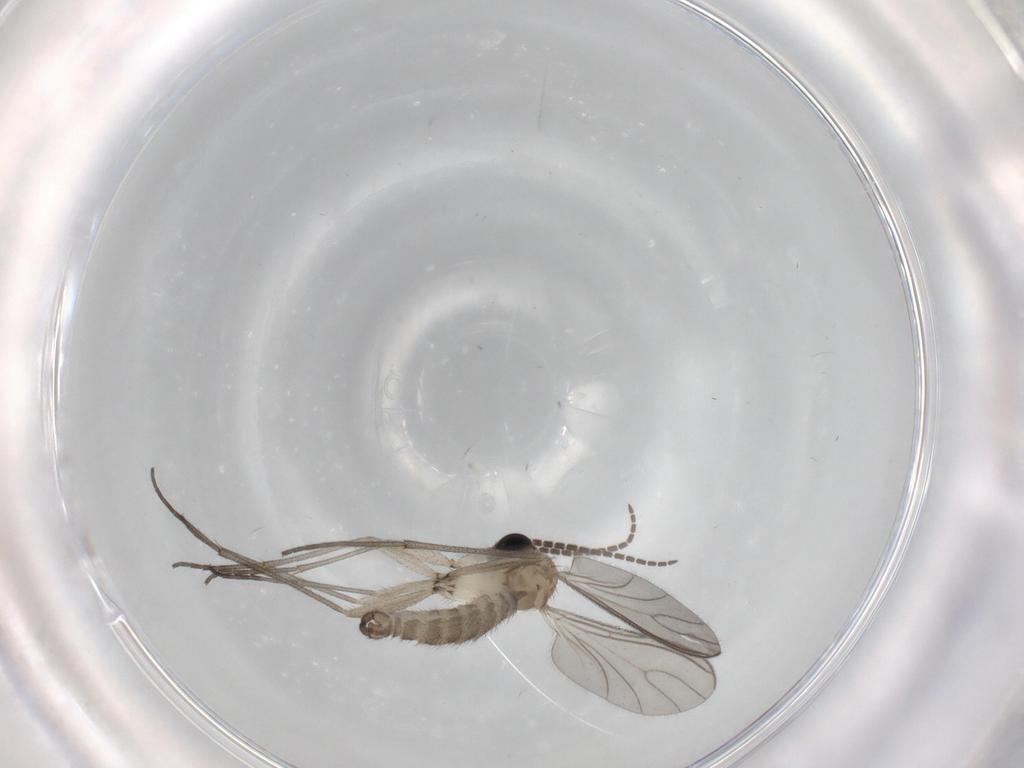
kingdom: Animalia
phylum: Arthropoda
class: Insecta
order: Diptera
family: Sciaridae
